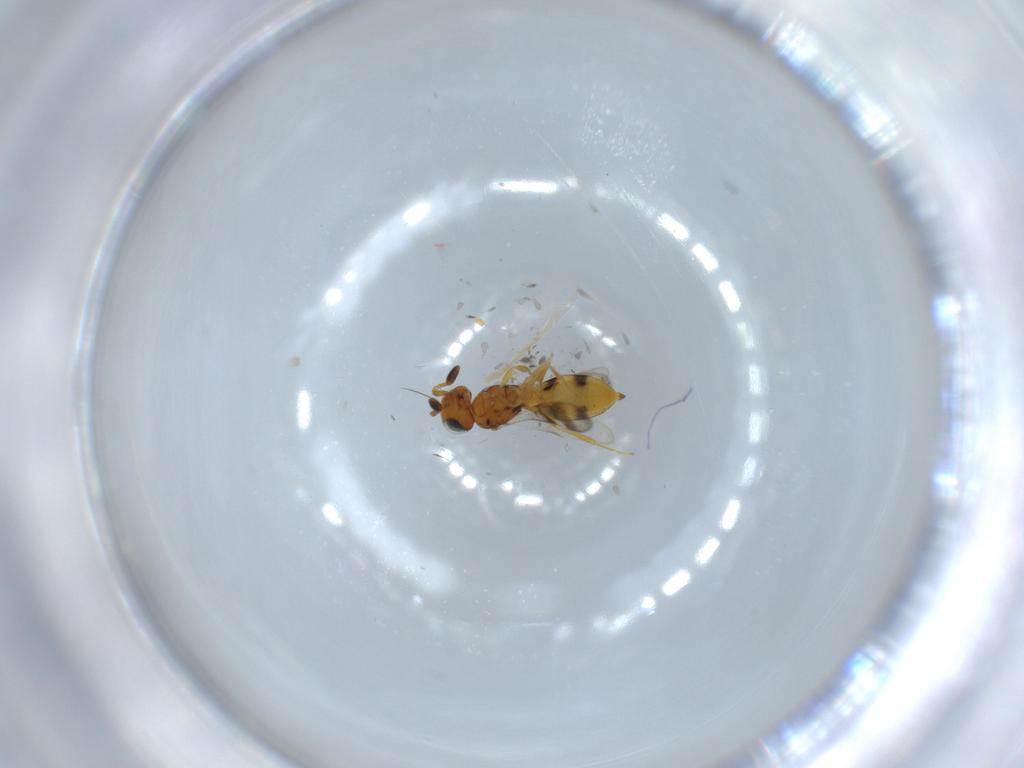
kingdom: Animalia
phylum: Arthropoda
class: Insecta
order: Hymenoptera
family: Scelionidae
